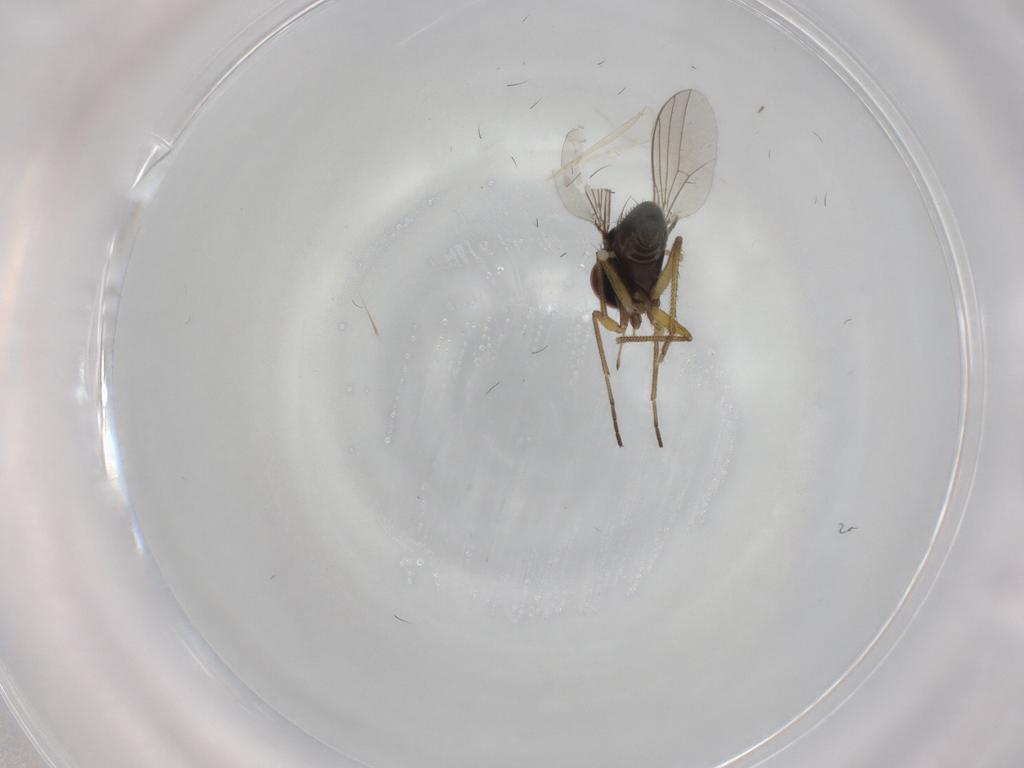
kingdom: Animalia
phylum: Arthropoda
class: Insecta
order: Diptera
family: Dolichopodidae
